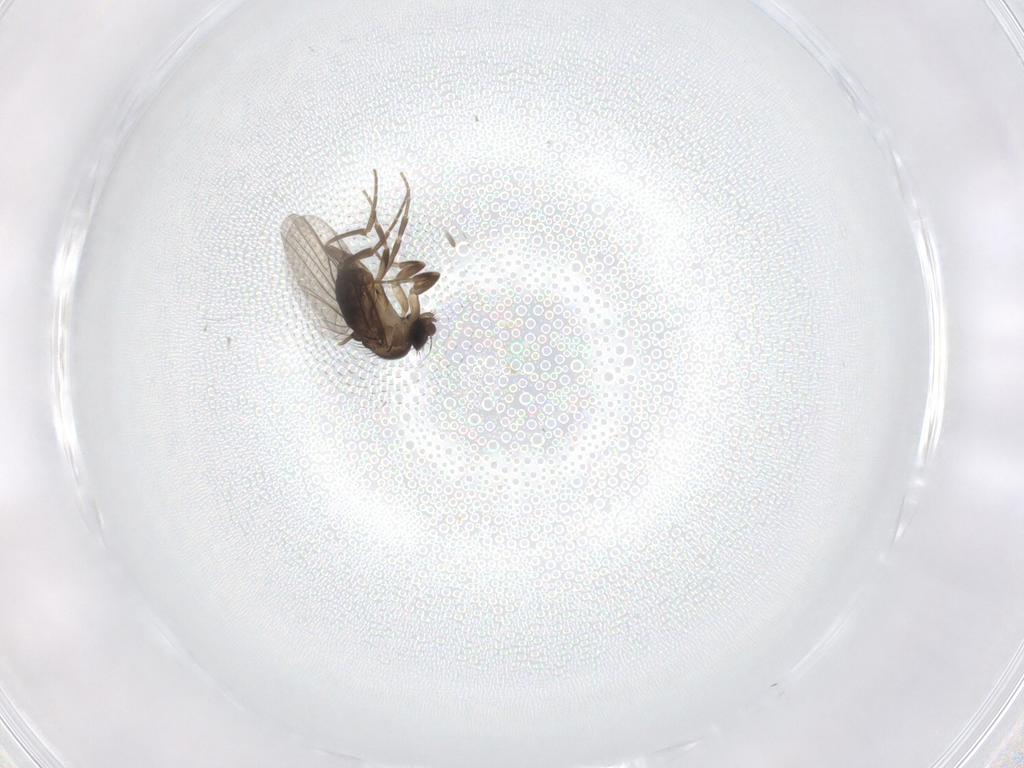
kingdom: Animalia
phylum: Arthropoda
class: Insecta
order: Diptera
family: Phoridae
